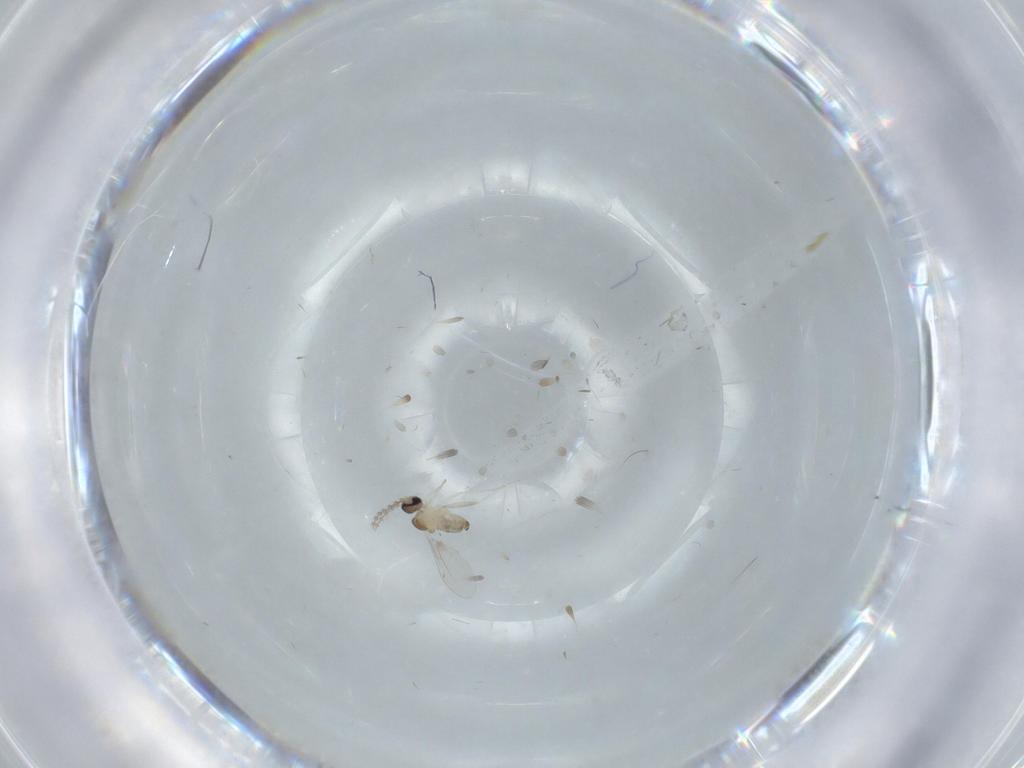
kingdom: Animalia
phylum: Arthropoda
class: Insecta
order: Diptera
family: Cecidomyiidae
